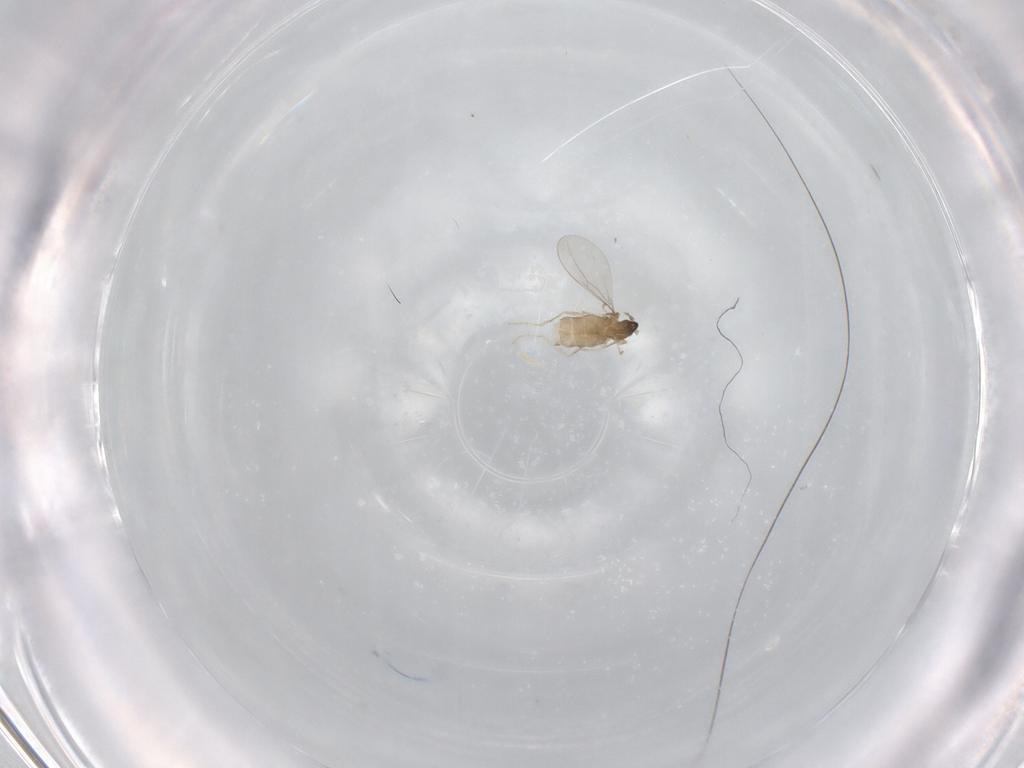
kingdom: Animalia
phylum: Arthropoda
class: Insecta
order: Diptera
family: Cecidomyiidae
